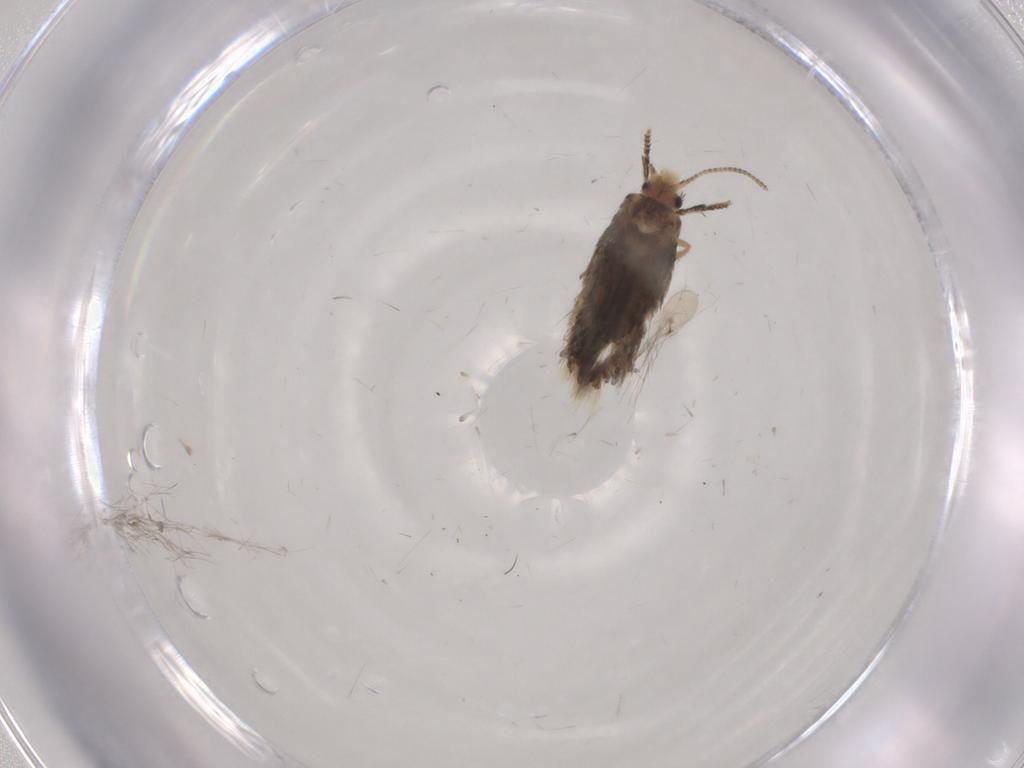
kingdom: Animalia
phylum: Arthropoda
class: Insecta
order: Lepidoptera
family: Nepticulidae
